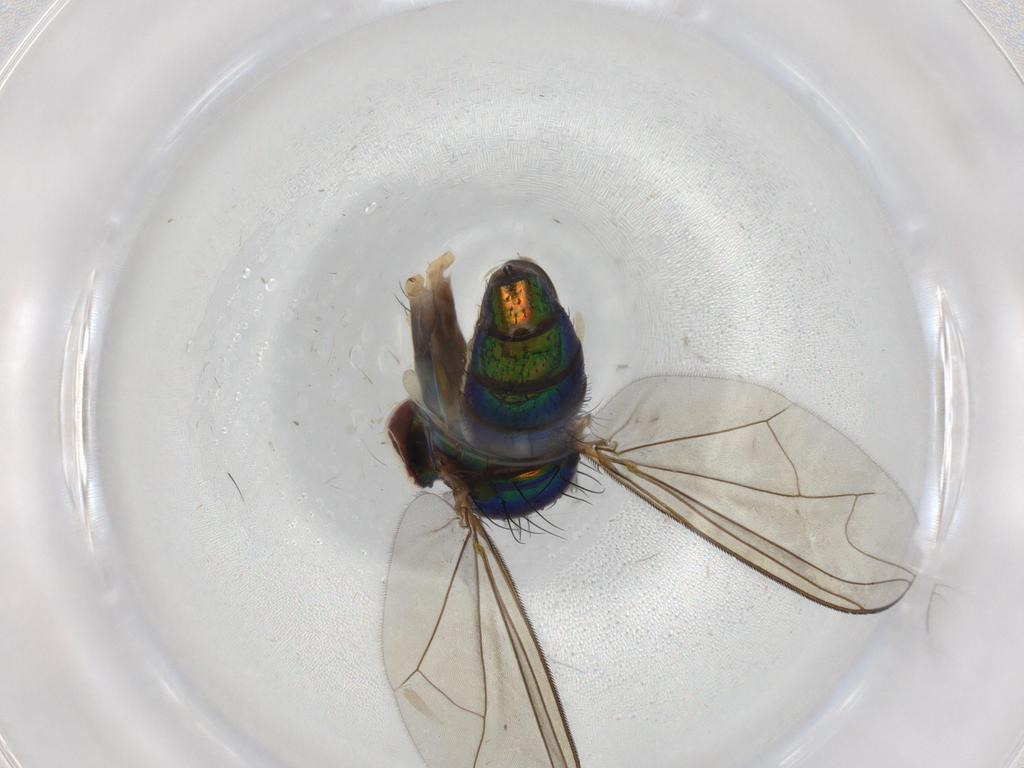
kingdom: Animalia
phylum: Arthropoda
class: Insecta
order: Diptera
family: Dolichopodidae
